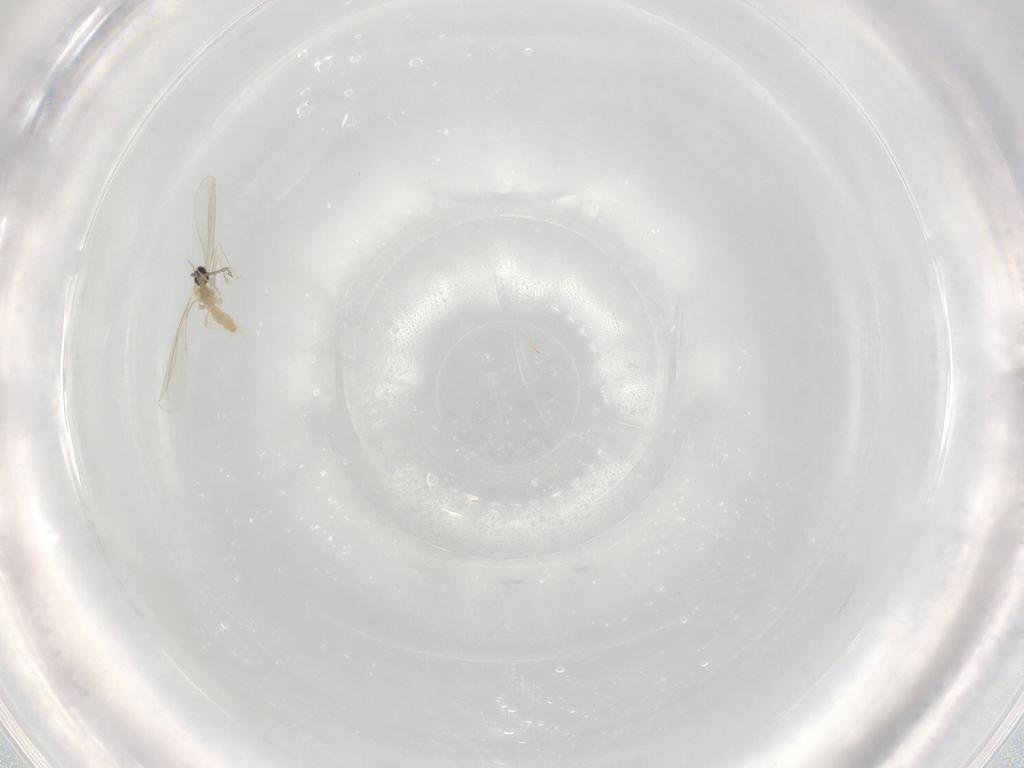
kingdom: Animalia
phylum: Arthropoda
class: Insecta
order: Diptera
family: Cecidomyiidae
